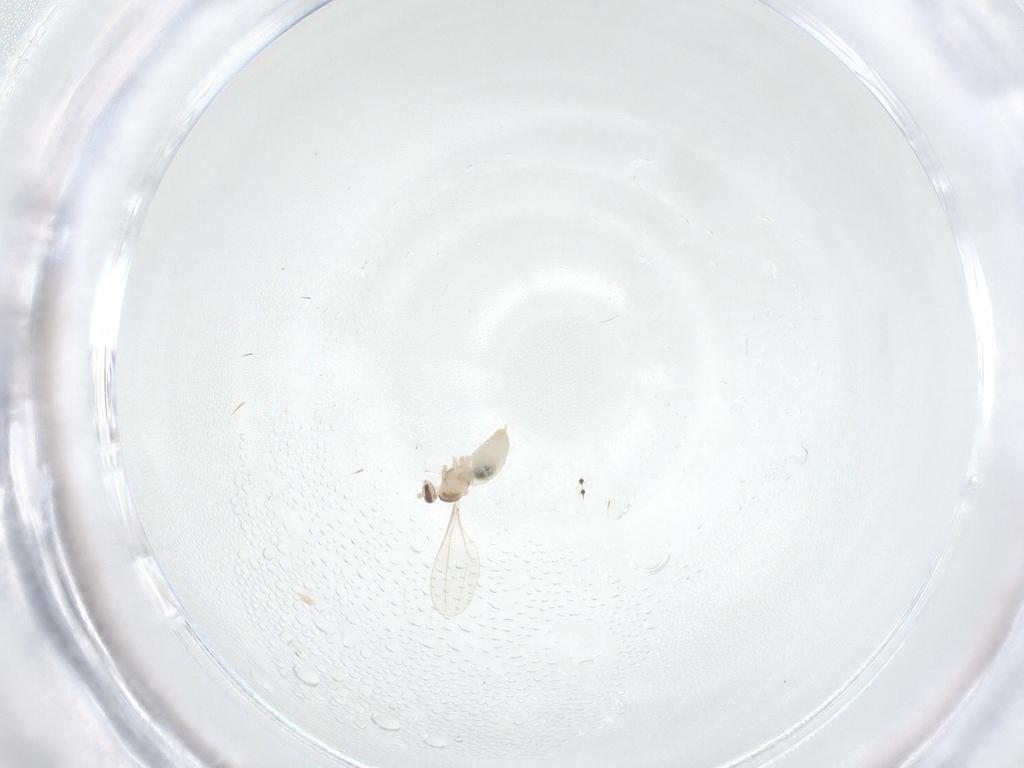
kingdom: Animalia
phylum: Arthropoda
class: Insecta
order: Diptera
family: Cecidomyiidae
